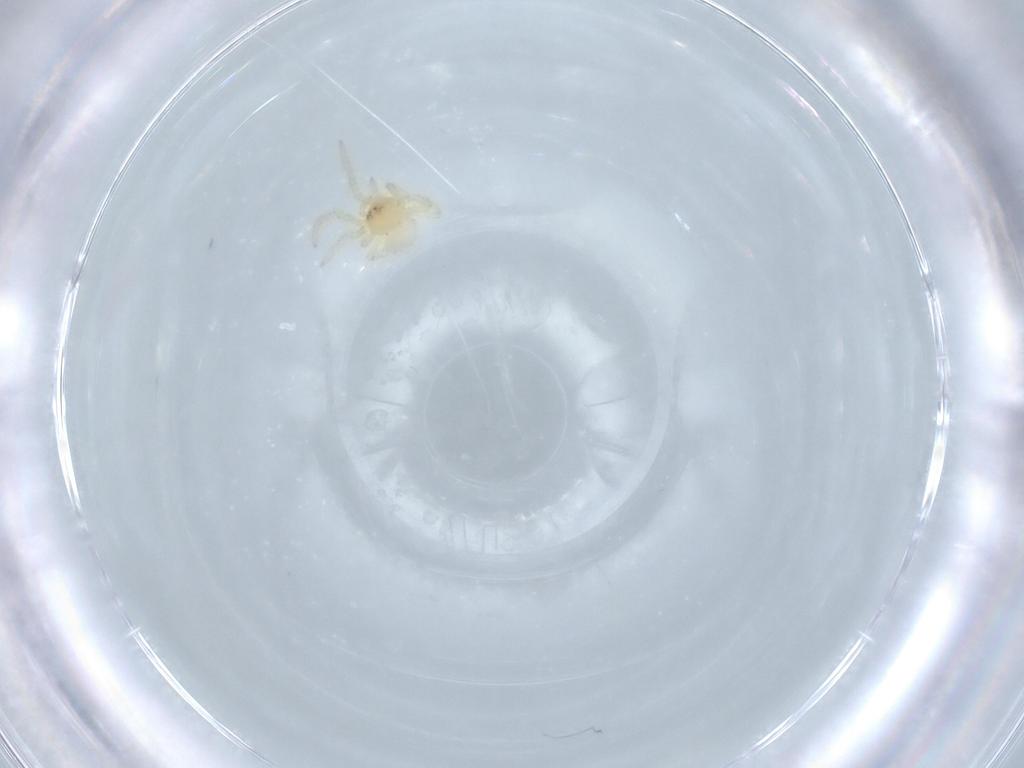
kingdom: Animalia
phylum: Arthropoda
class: Arachnida
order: Araneae
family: Theridiidae
